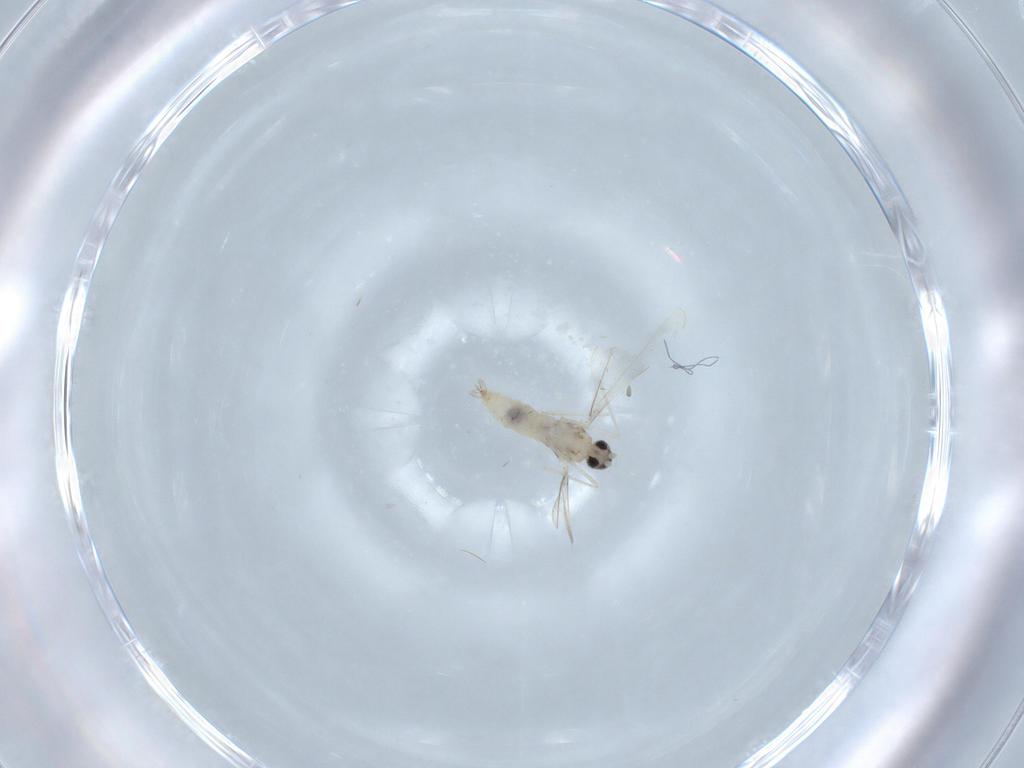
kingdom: Animalia
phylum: Arthropoda
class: Insecta
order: Diptera
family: Cecidomyiidae
